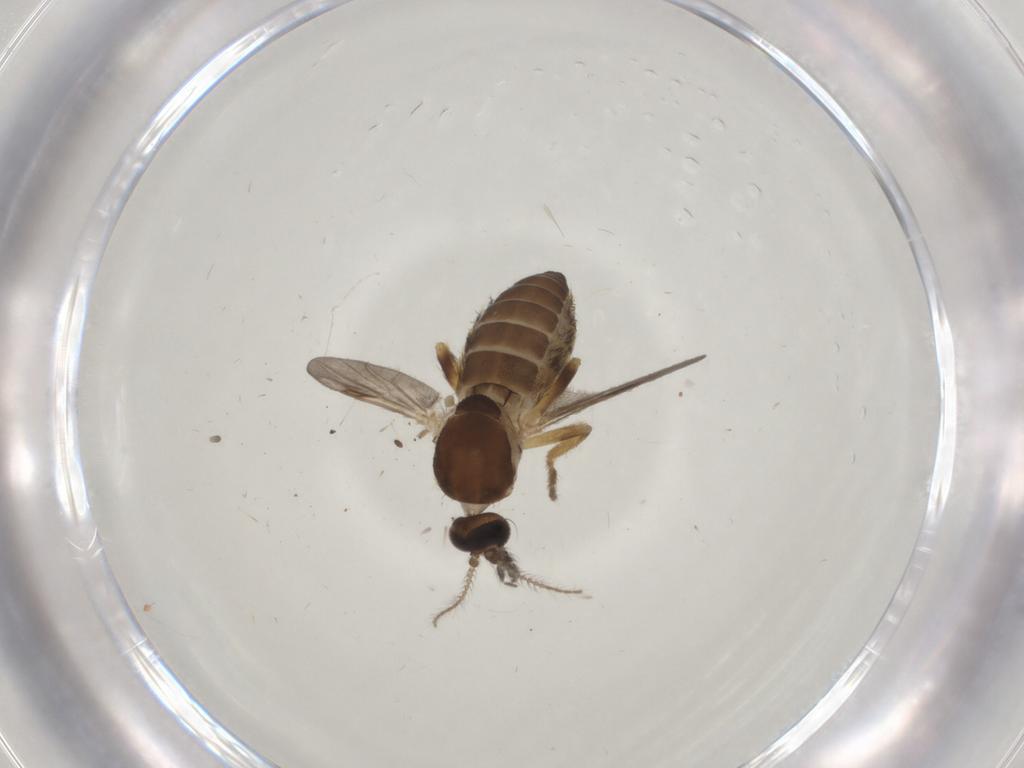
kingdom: Animalia
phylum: Arthropoda
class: Insecta
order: Diptera
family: Ceratopogonidae
